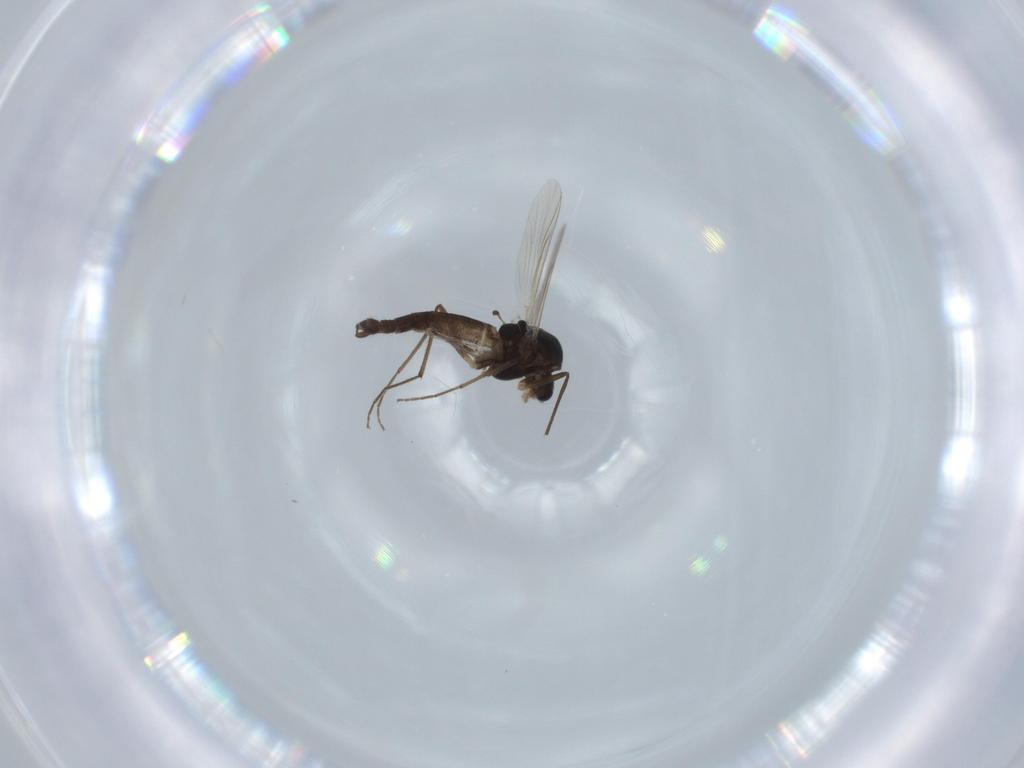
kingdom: Animalia
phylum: Arthropoda
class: Insecta
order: Diptera
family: Chironomidae
